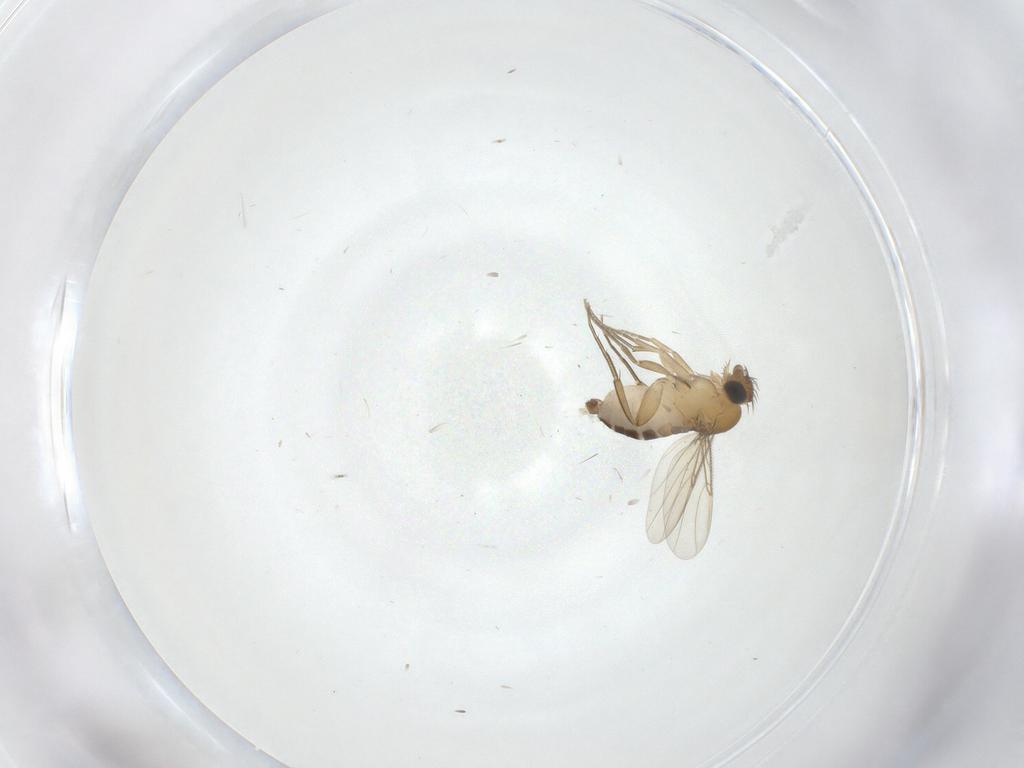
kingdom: Animalia
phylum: Arthropoda
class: Insecta
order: Diptera
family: Phoridae
